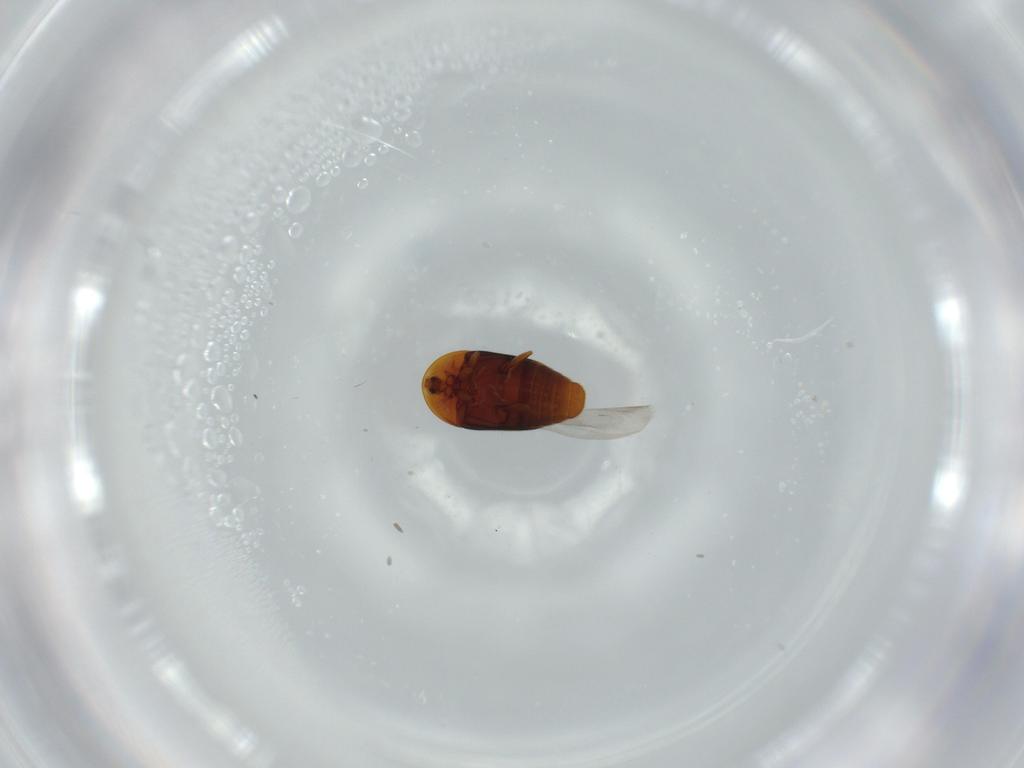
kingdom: Animalia
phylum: Arthropoda
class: Insecta
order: Coleoptera
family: Corylophidae
